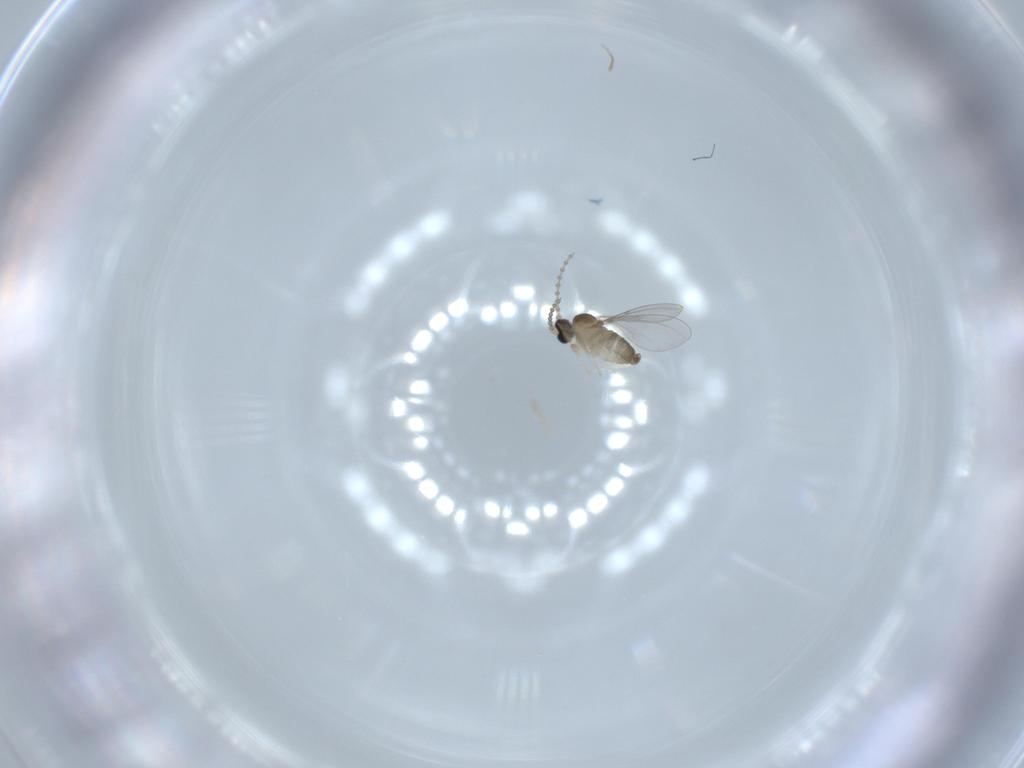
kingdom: Animalia
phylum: Arthropoda
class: Insecta
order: Diptera
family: Cecidomyiidae
